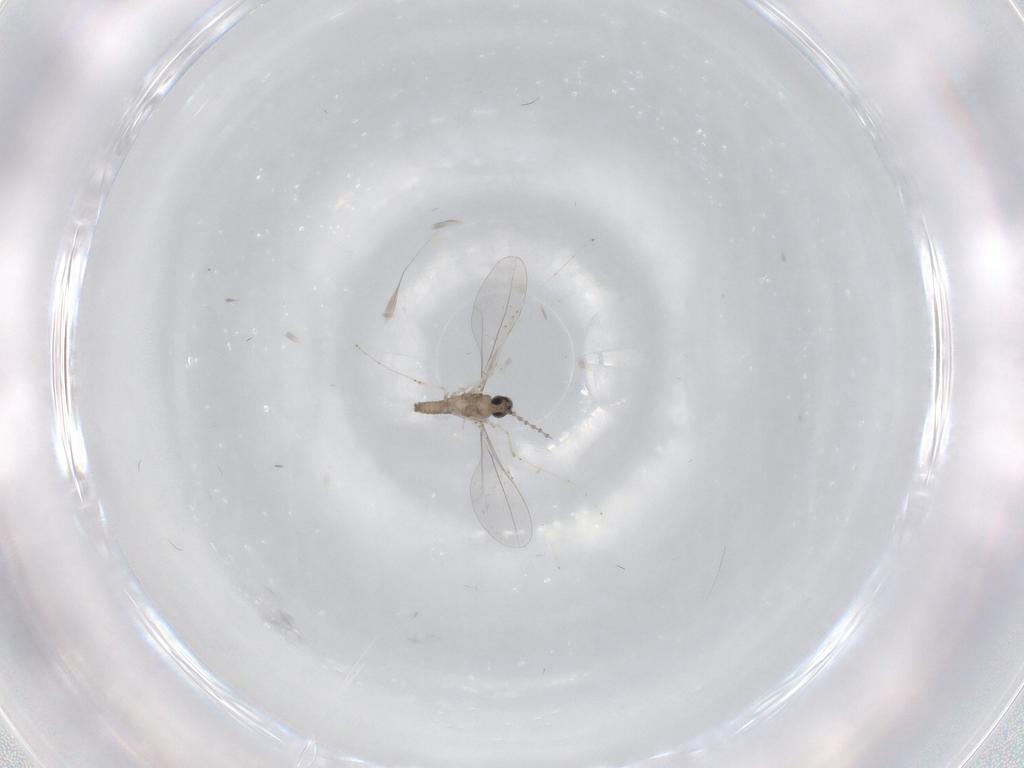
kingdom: Animalia
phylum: Arthropoda
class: Insecta
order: Diptera
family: Cecidomyiidae
